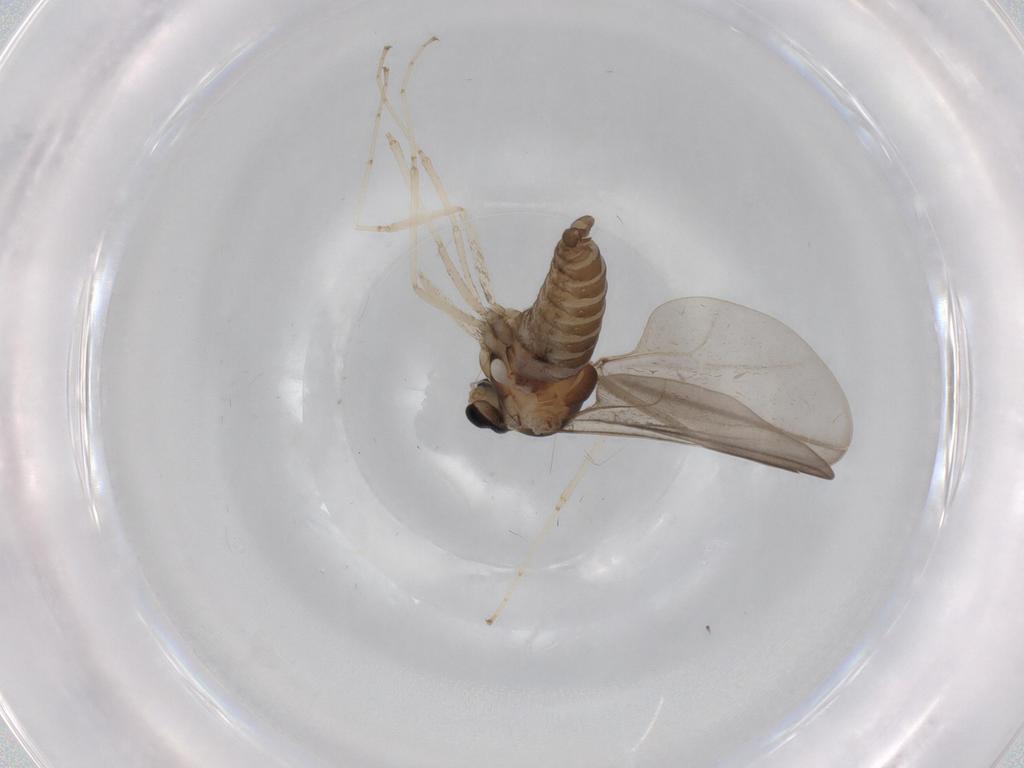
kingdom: Animalia
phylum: Arthropoda
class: Insecta
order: Diptera
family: Cecidomyiidae
